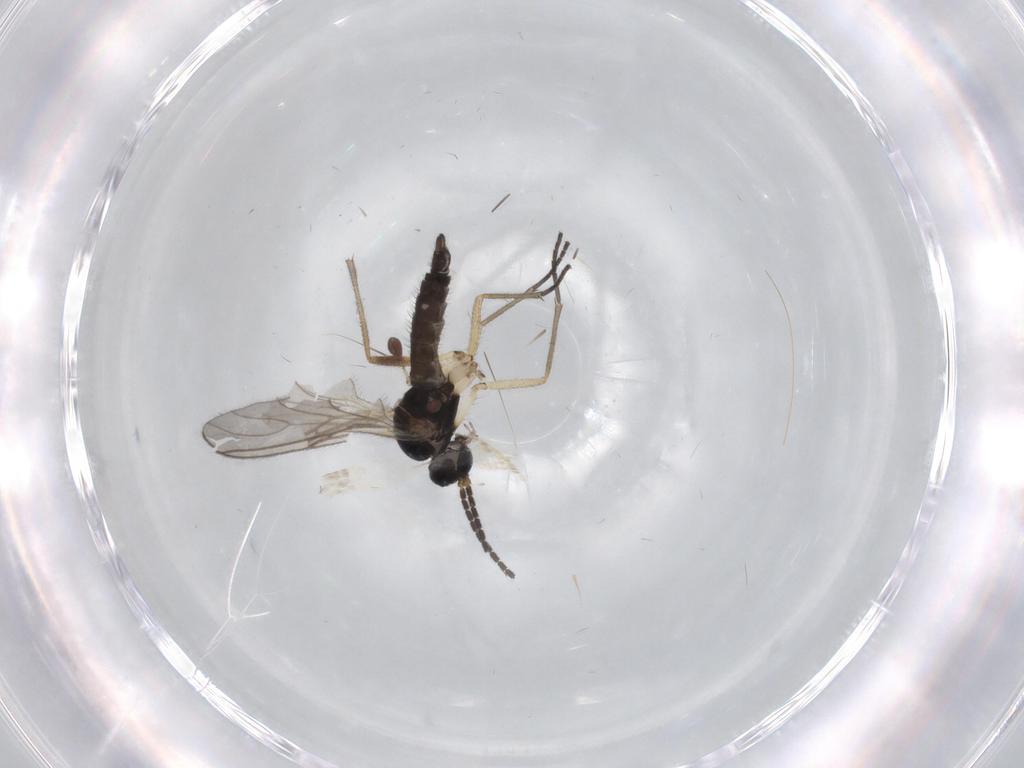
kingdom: Animalia
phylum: Arthropoda
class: Insecta
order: Diptera
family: Sciaridae
